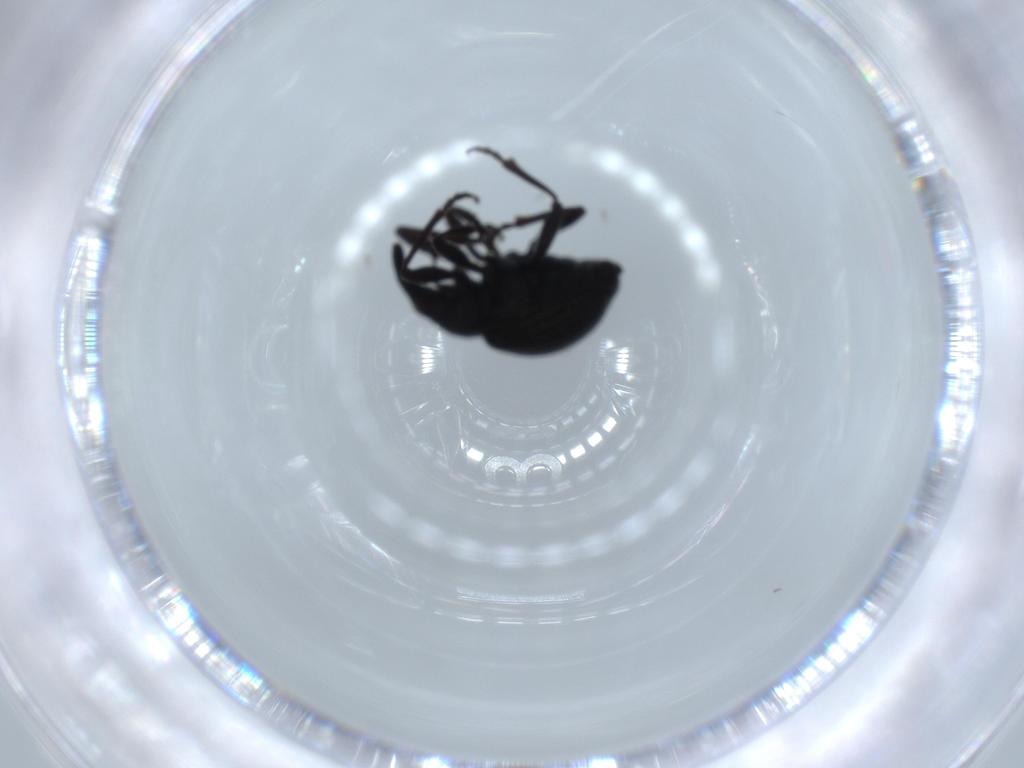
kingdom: Animalia
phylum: Arthropoda
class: Insecta
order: Coleoptera
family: Brentidae
